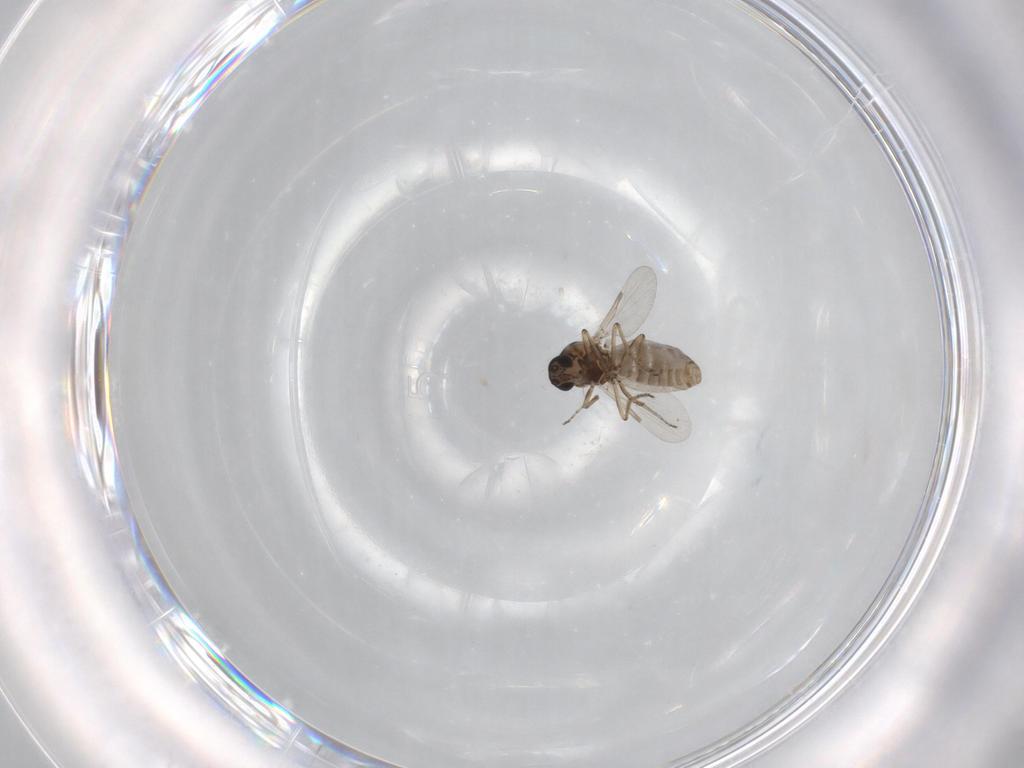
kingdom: Animalia
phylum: Arthropoda
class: Insecta
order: Diptera
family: Ceratopogonidae
